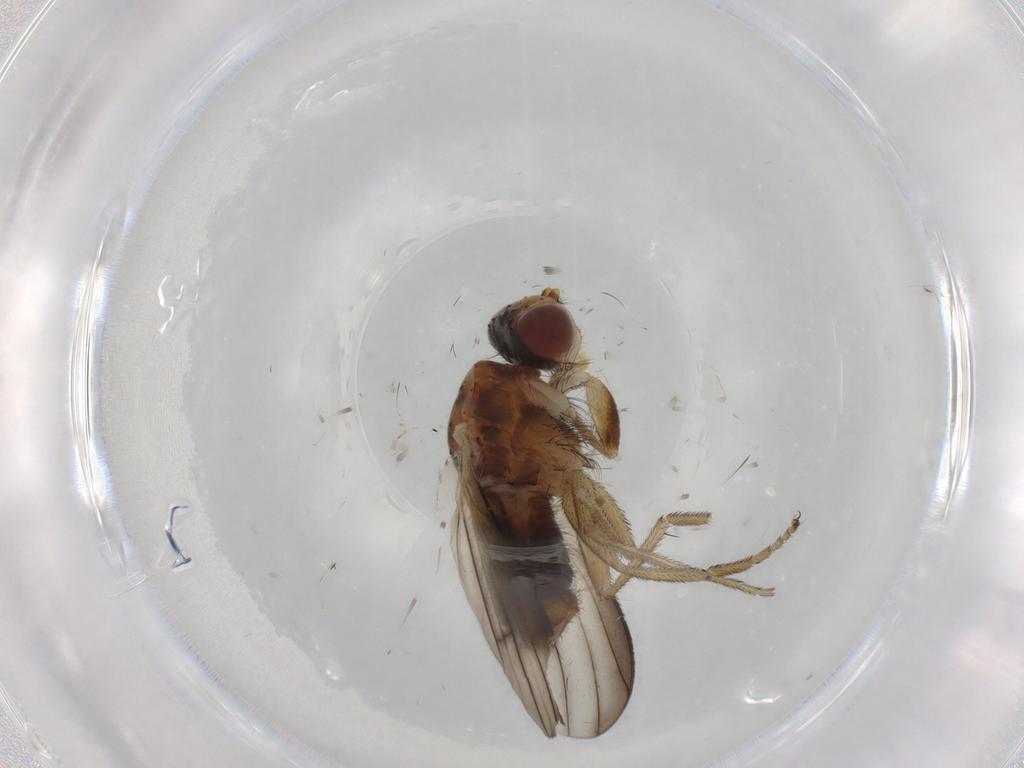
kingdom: Animalia
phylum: Arthropoda
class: Insecta
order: Diptera
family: Heleomyzidae
